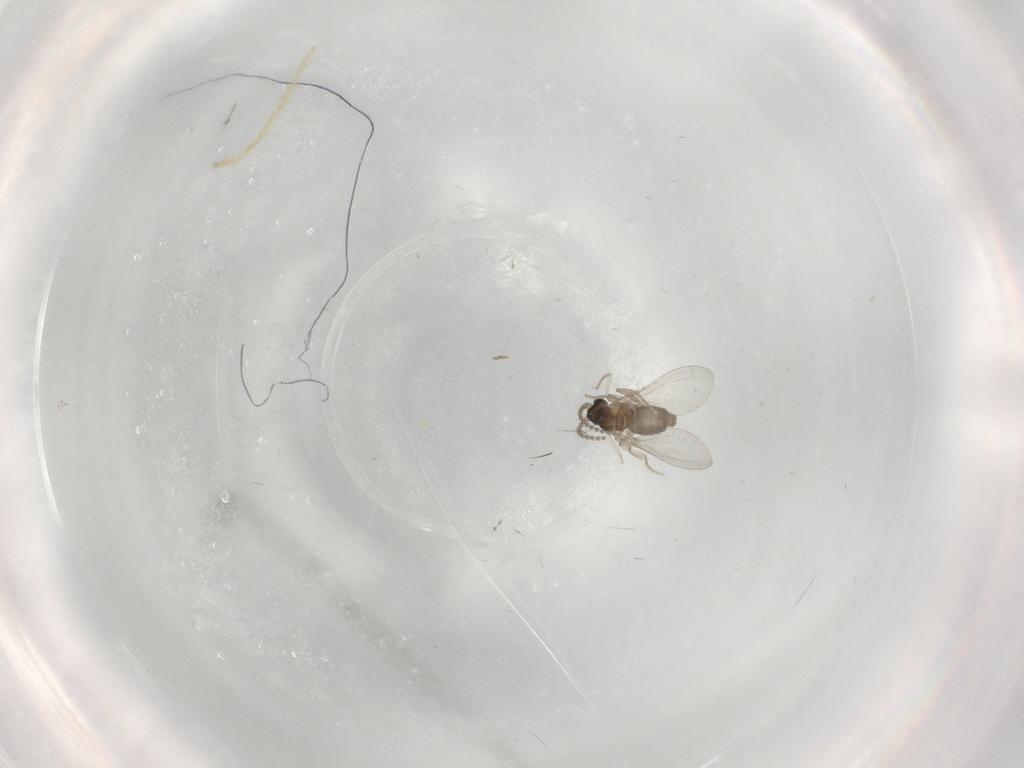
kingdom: Animalia
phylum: Arthropoda
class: Insecta
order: Diptera
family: Cecidomyiidae
